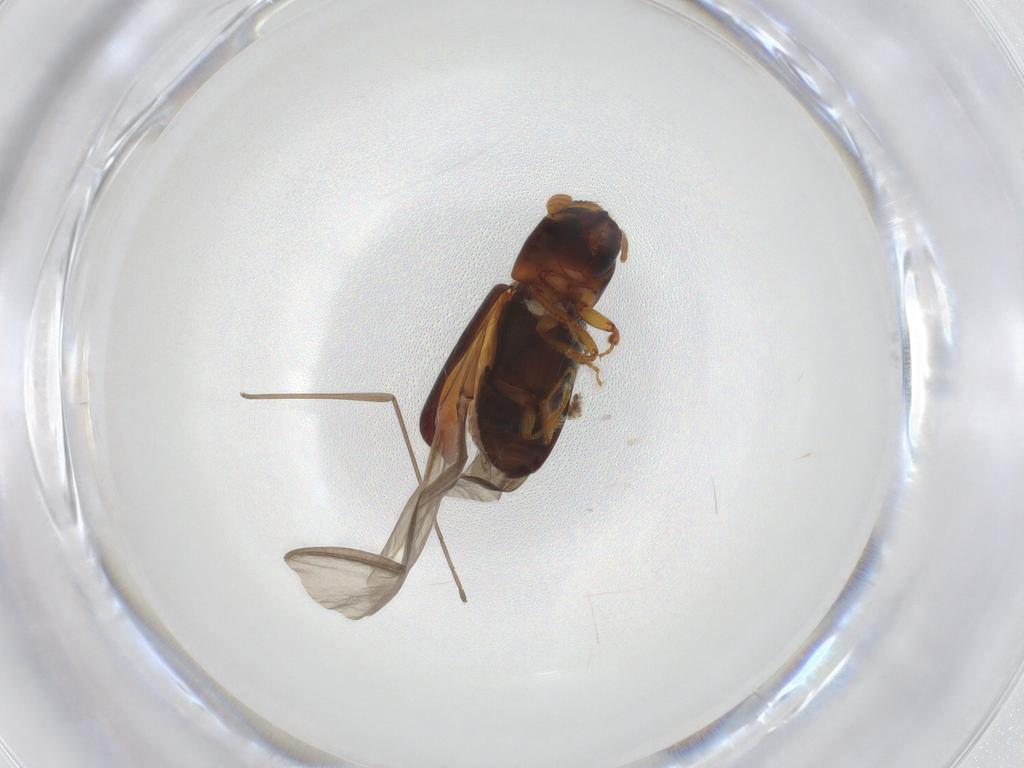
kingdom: Animalia
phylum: Arthropoda
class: Insecta
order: Coleoptera
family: Curculionidae
